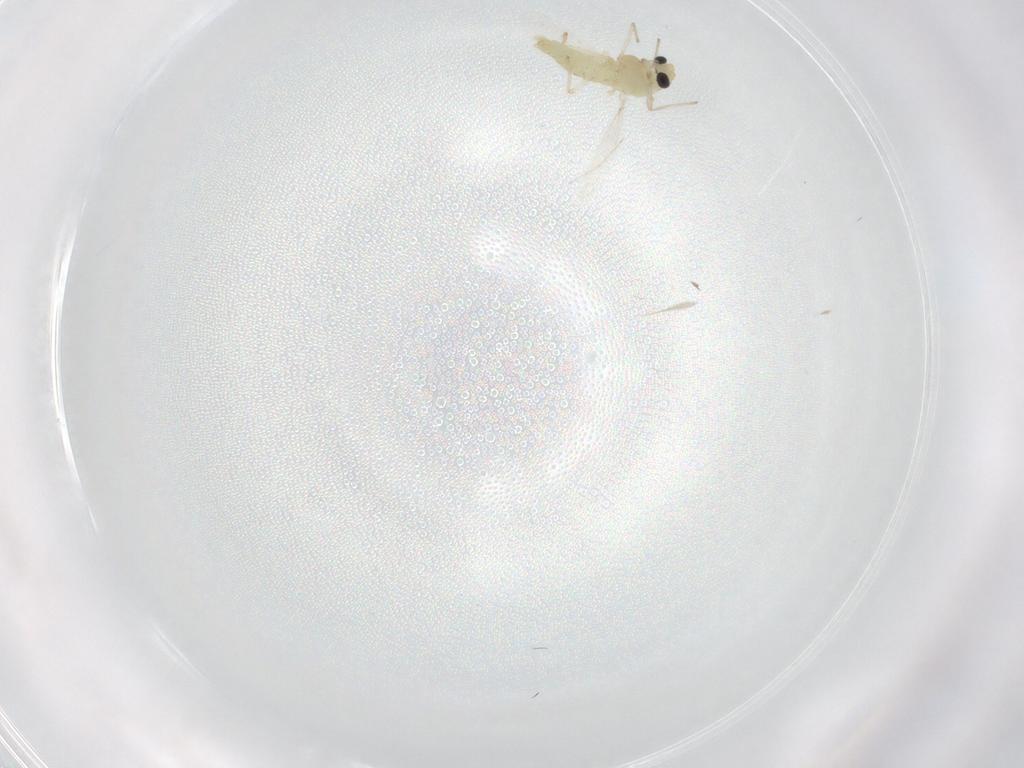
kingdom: Animalia
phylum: Arthropoda
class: Insecta
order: Diptera
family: Chironomidae
